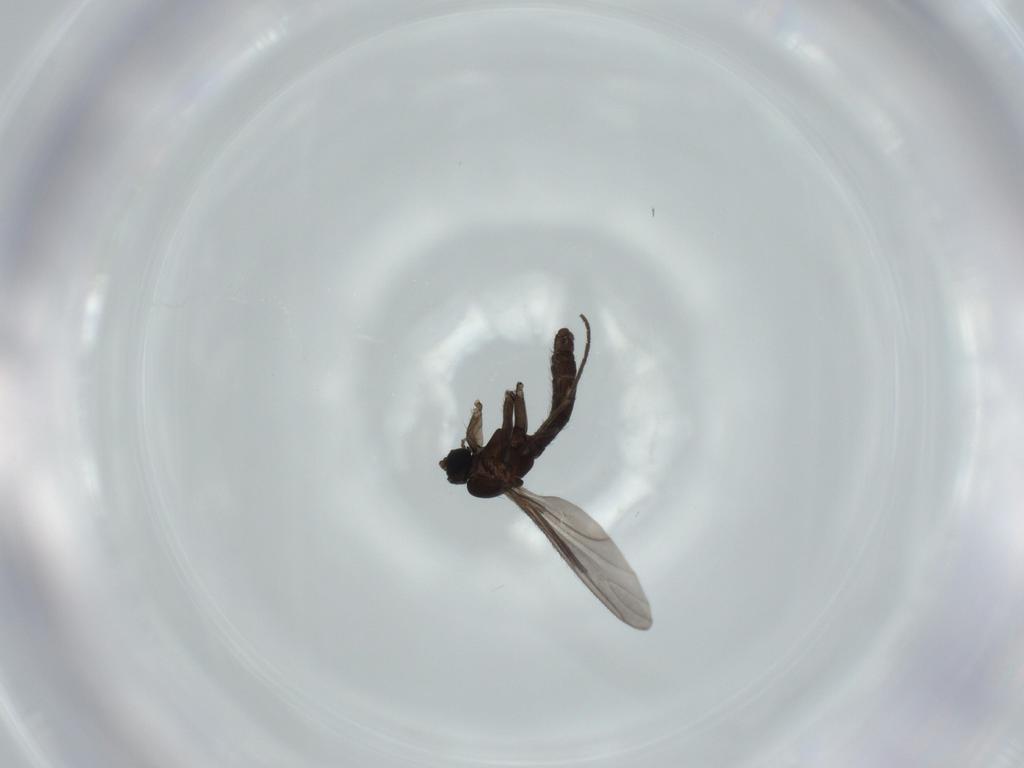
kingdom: Animalia
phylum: Arthropoda
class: Insecta
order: Diptera
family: Sciaridae
